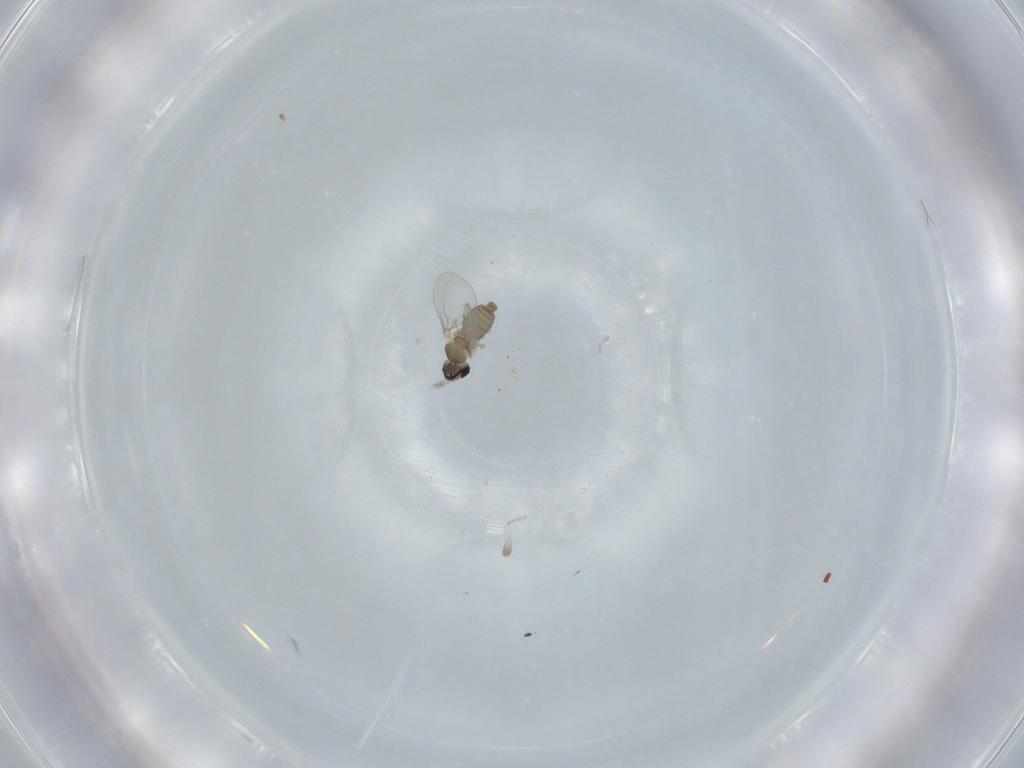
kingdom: Animalia
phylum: Arthropoda
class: Insecta
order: Diptera
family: Cecidomyiidae
